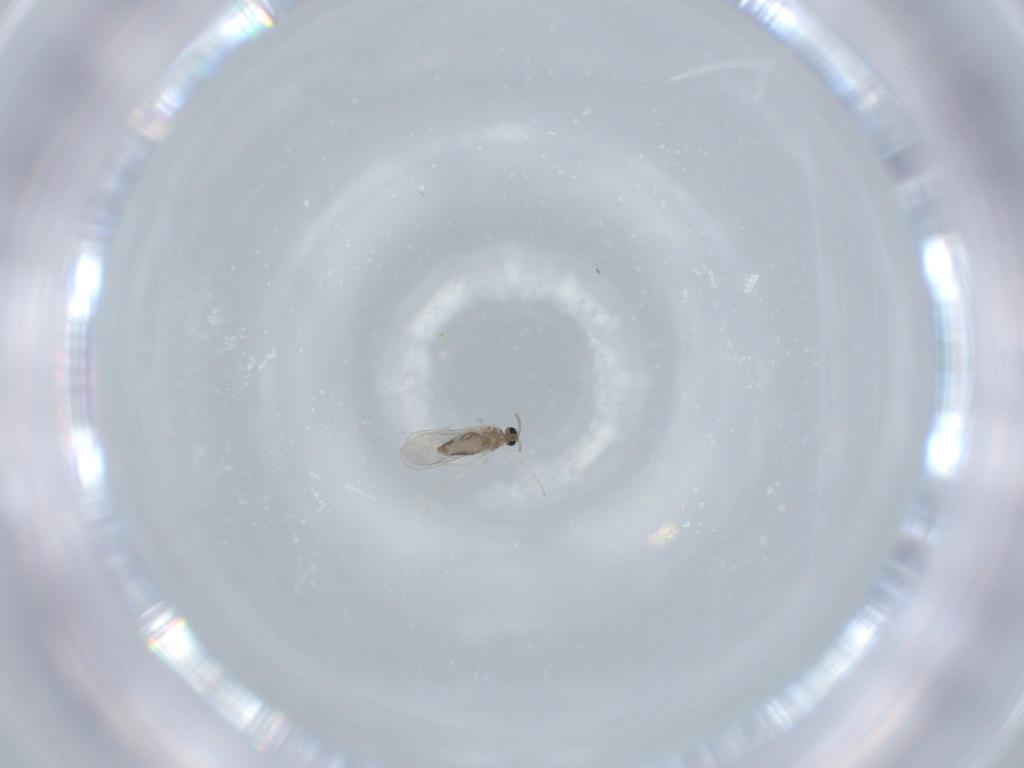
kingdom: Animalia
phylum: Arthropoda
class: Insecta
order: Diptera
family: Cecidomyiidae
